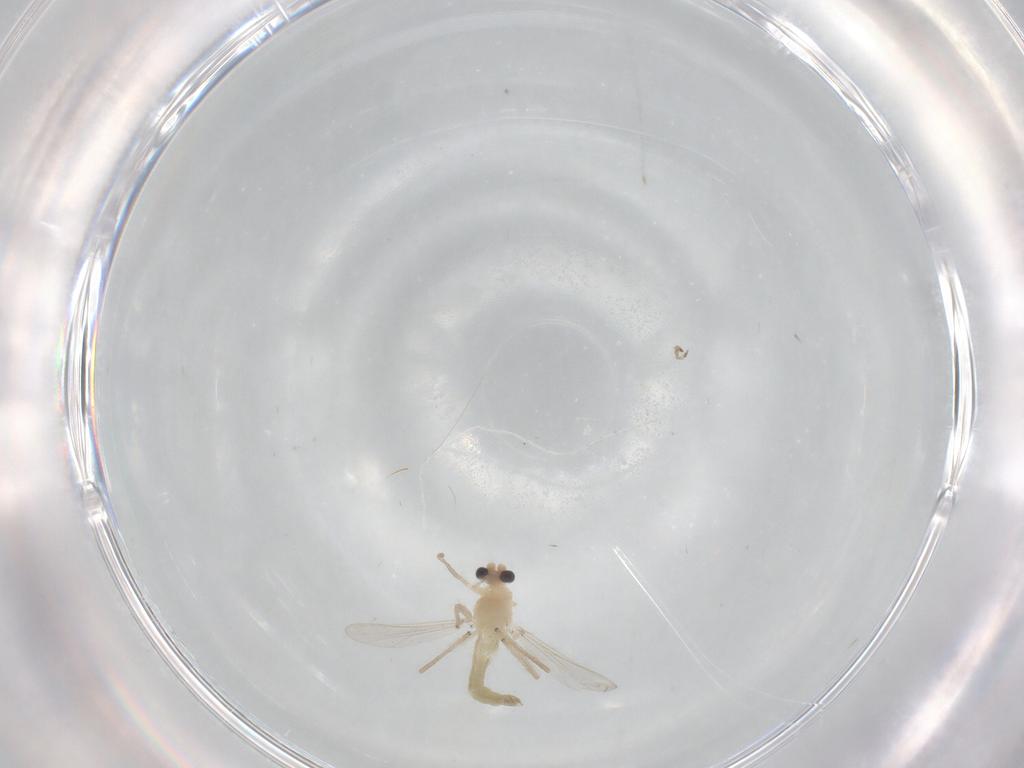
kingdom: Animalia
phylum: Arthropoda
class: Insecta
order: Diptera
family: Chironomidae
